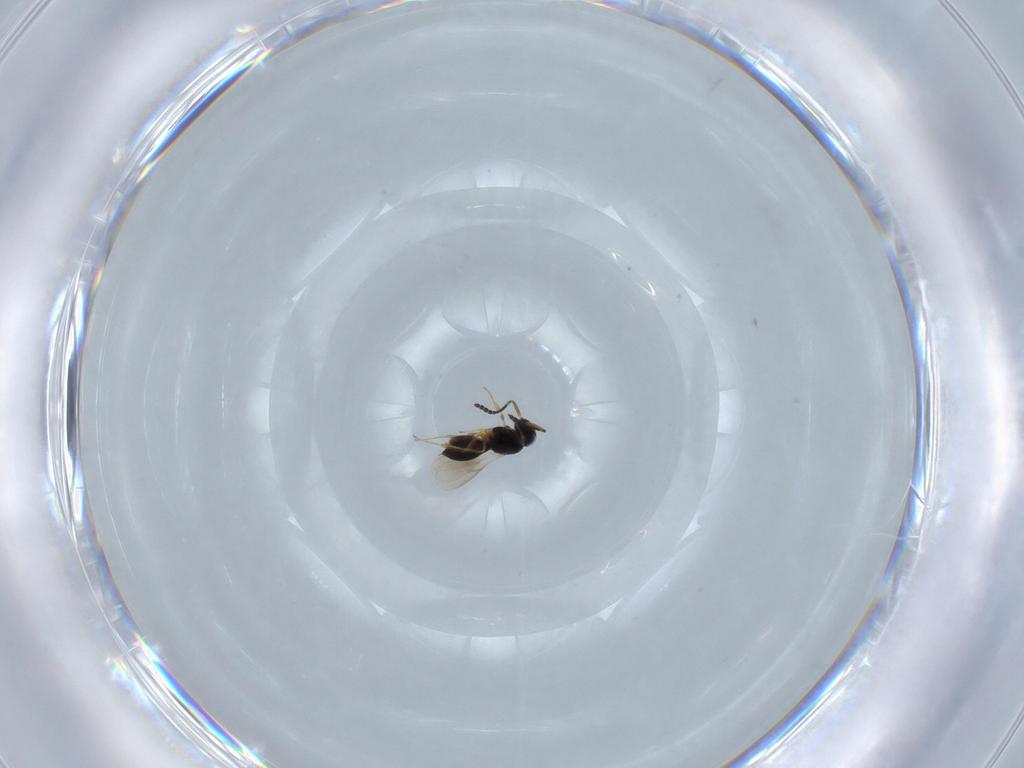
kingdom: Animalia
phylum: Arthropoda
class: Insecta
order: Hymenoptera
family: Scelionidae
